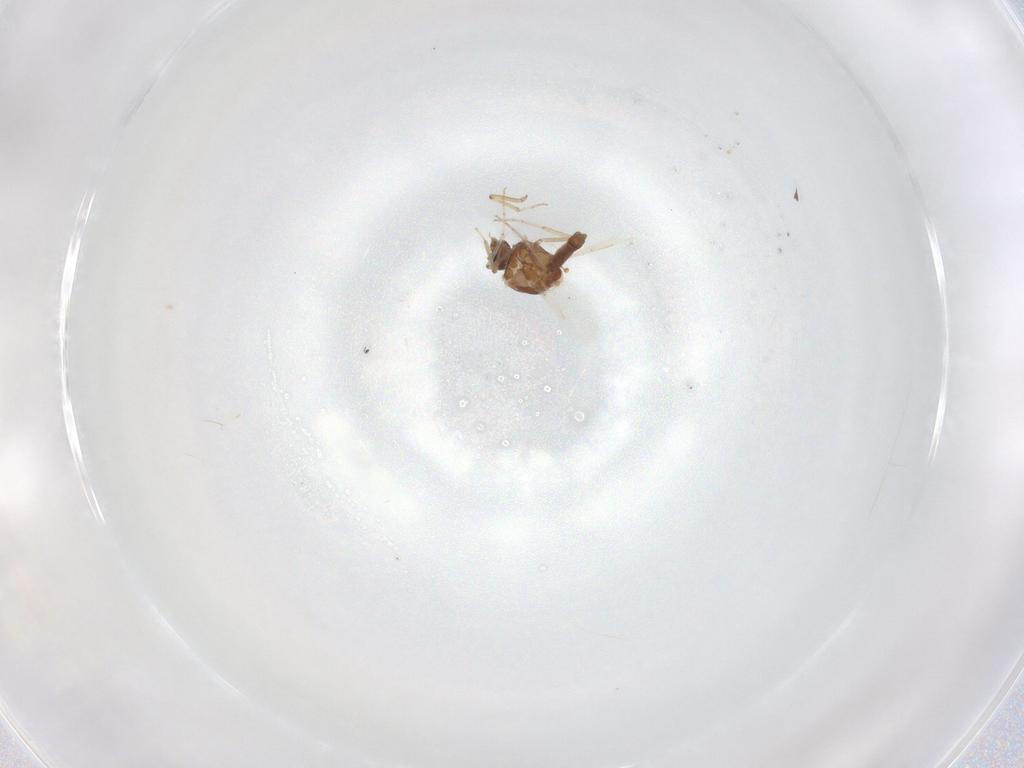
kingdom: Animalia
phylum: Arthropoda
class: Insecta
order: Diptera
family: Ceratopogonidae
